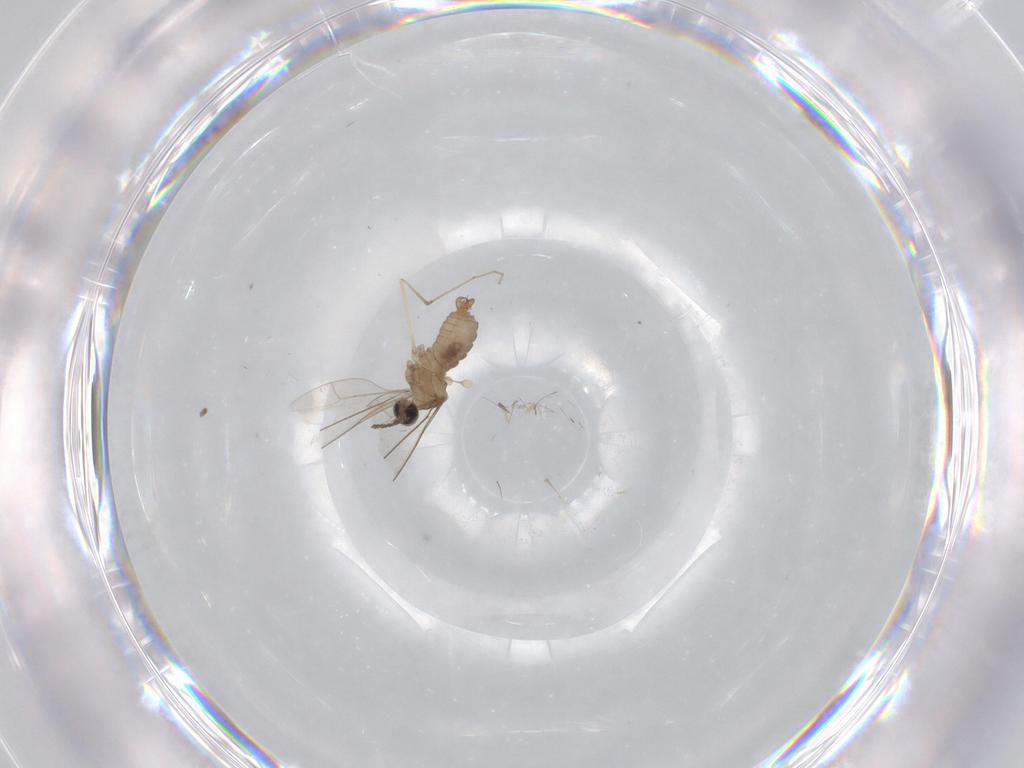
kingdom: Animalia
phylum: Arthropoda
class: Insecta
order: Diptera
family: Cecidomyiidae
